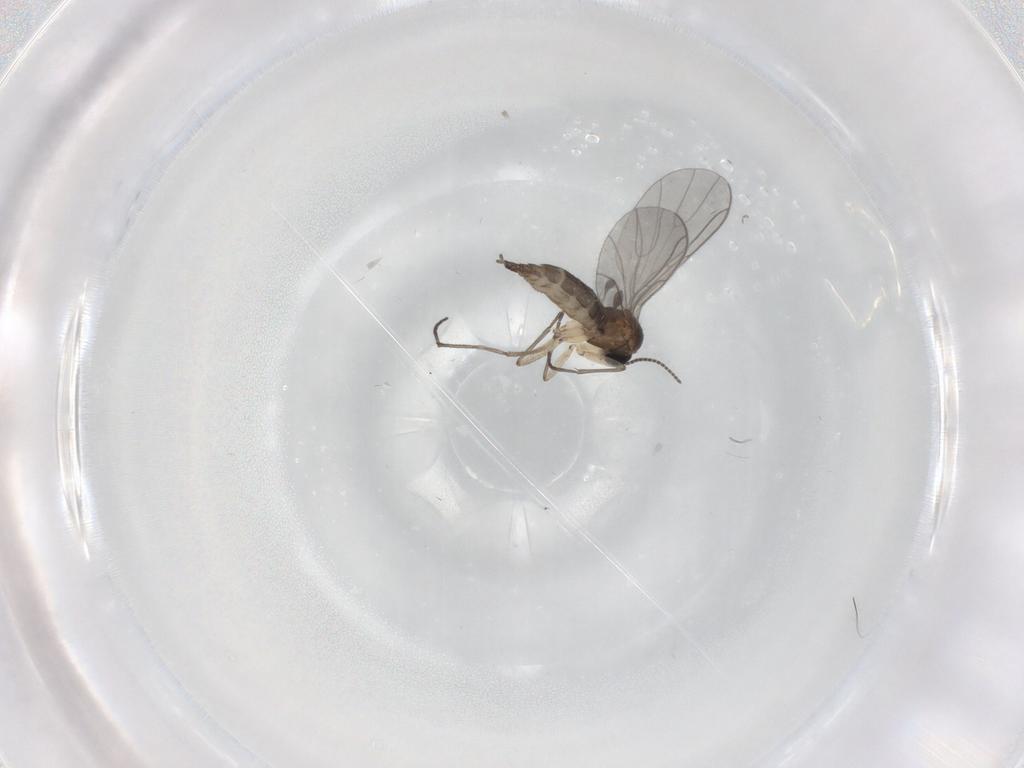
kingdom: Animalia
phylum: Arthropoda
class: Insecta
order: Diptera
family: Sciaridae
